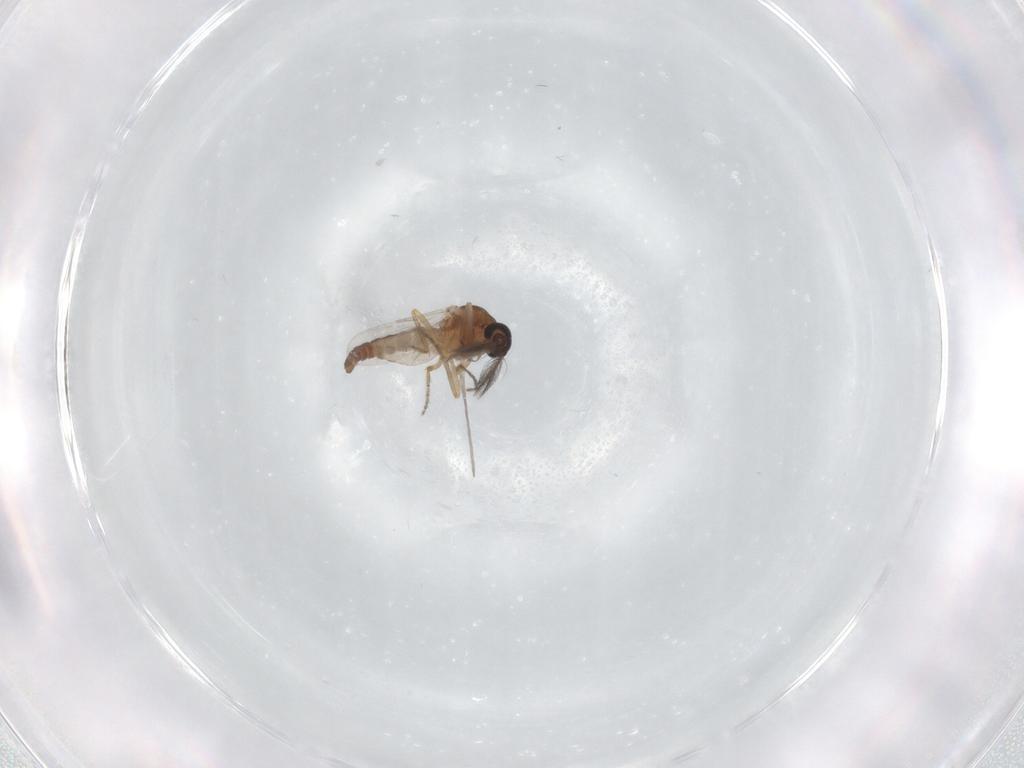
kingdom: Animalia
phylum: Arthropoda
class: Insecta
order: Diptera
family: Ceratopogonidae
